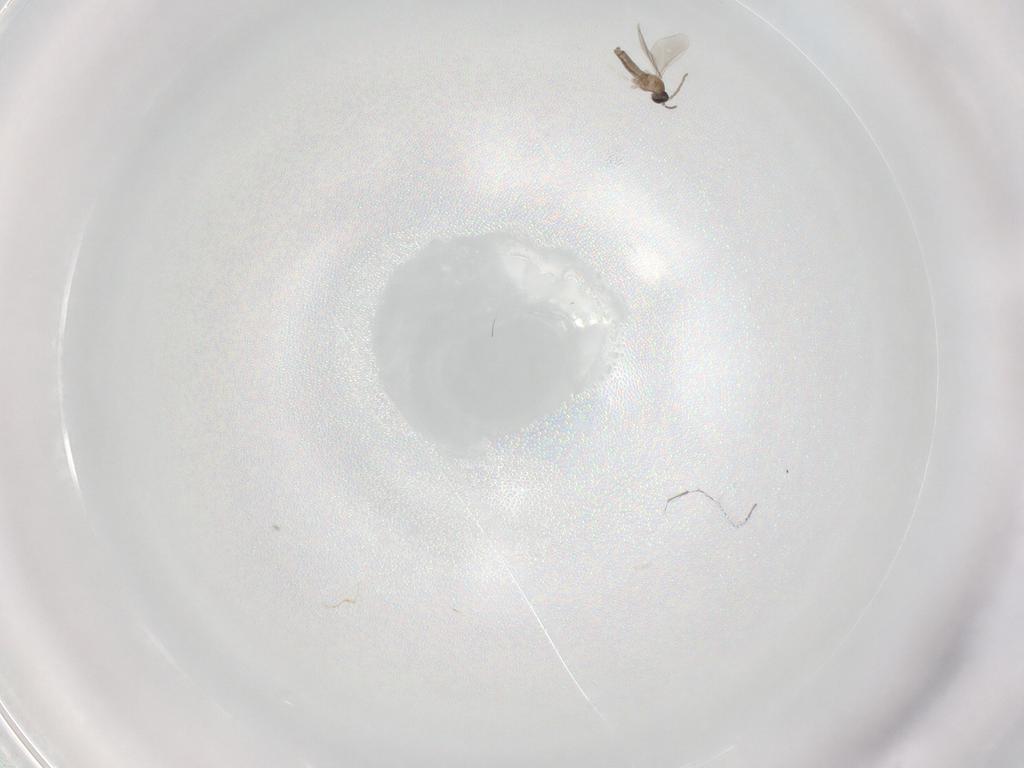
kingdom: Animalia
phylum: Arthropoda
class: Insecta
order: Diptera
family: Cecidomyiidae
